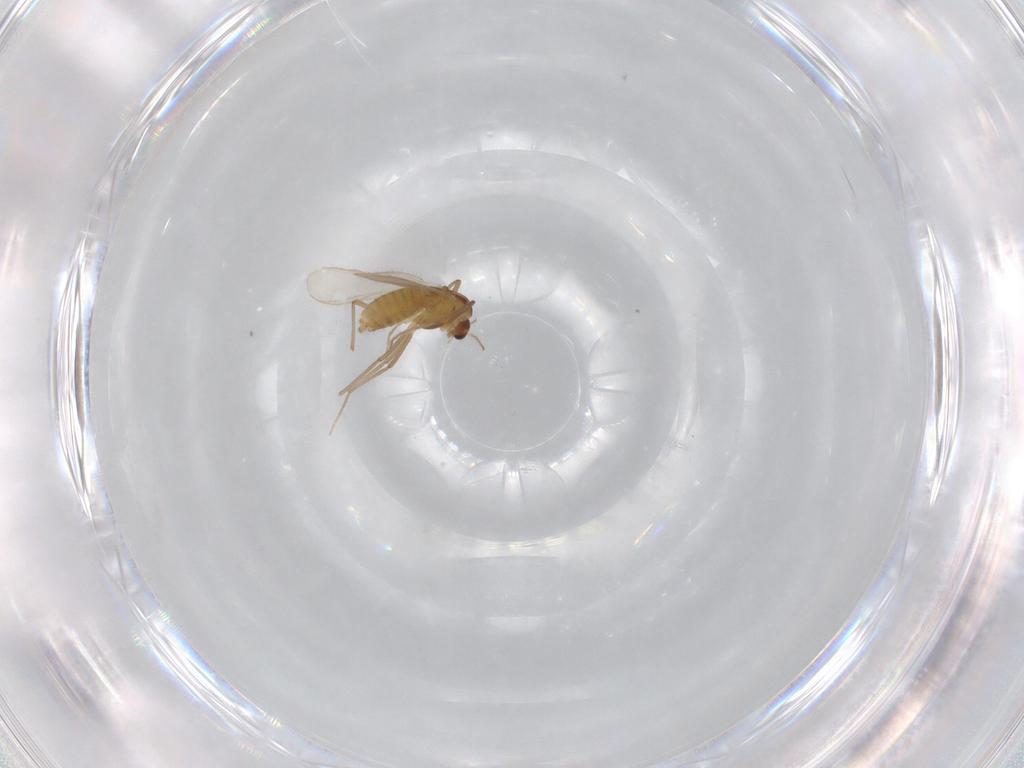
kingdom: Animalia
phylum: Arthropoda
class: Insecta
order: Diptera
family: Chironomidae
